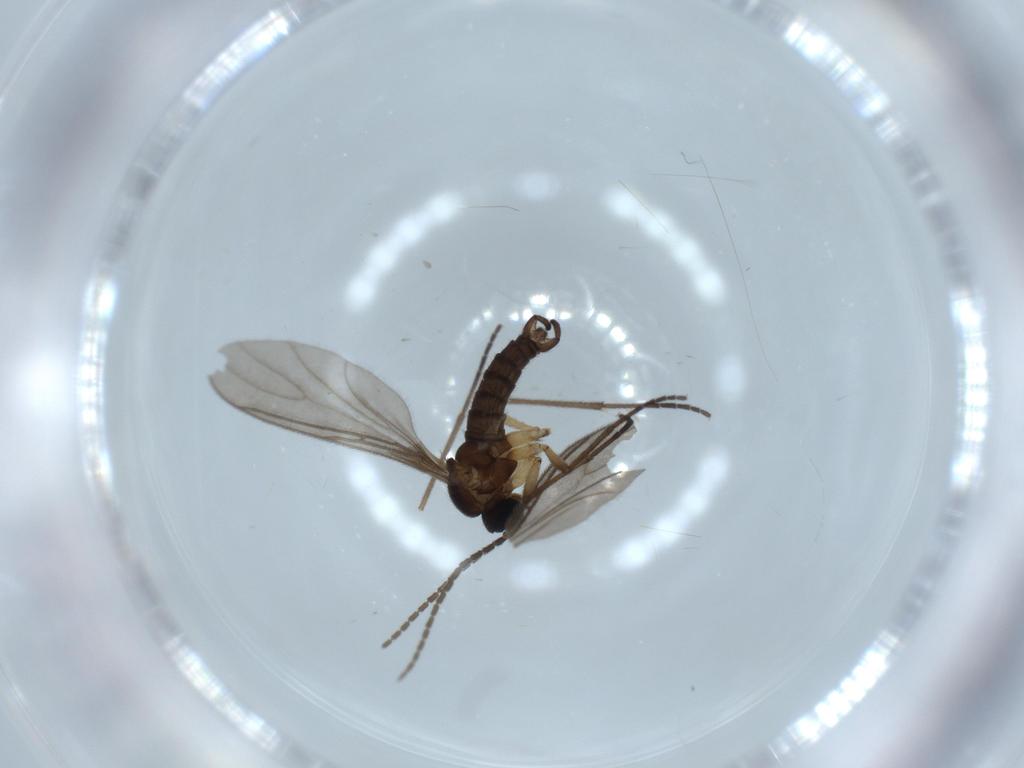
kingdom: Animalia
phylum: Arthropoda
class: Insecta
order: Diptera
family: Sciaridae
